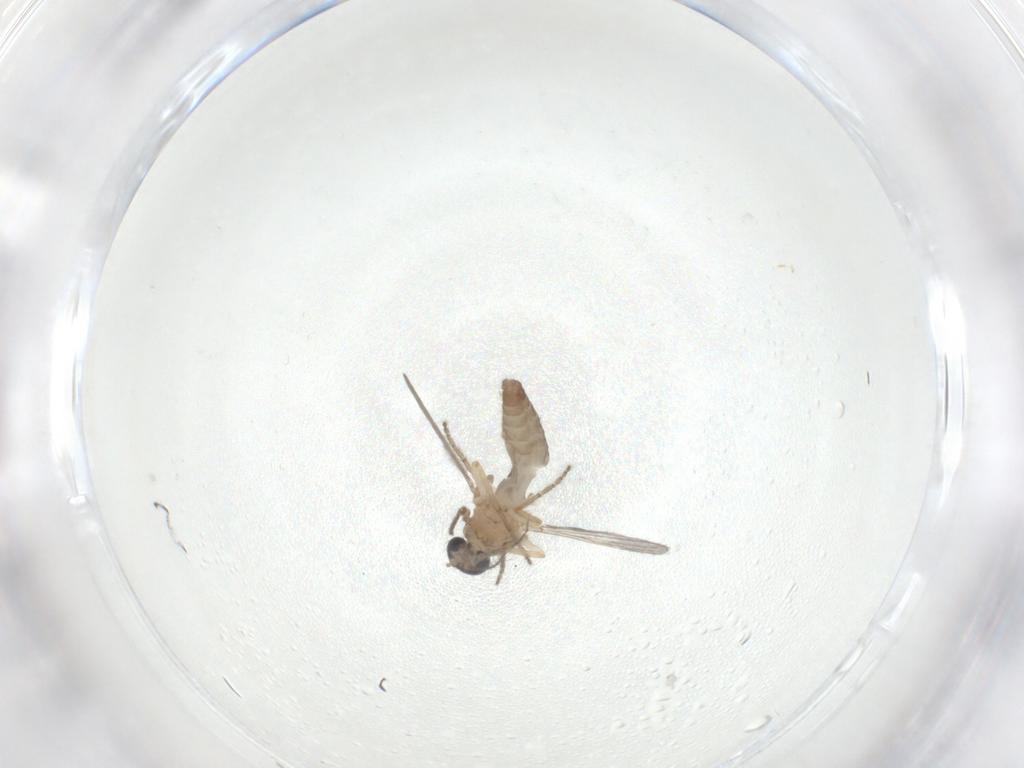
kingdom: Animalia
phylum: Arthropoda
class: Insecta
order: Diptera
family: Ceratopogonidae
